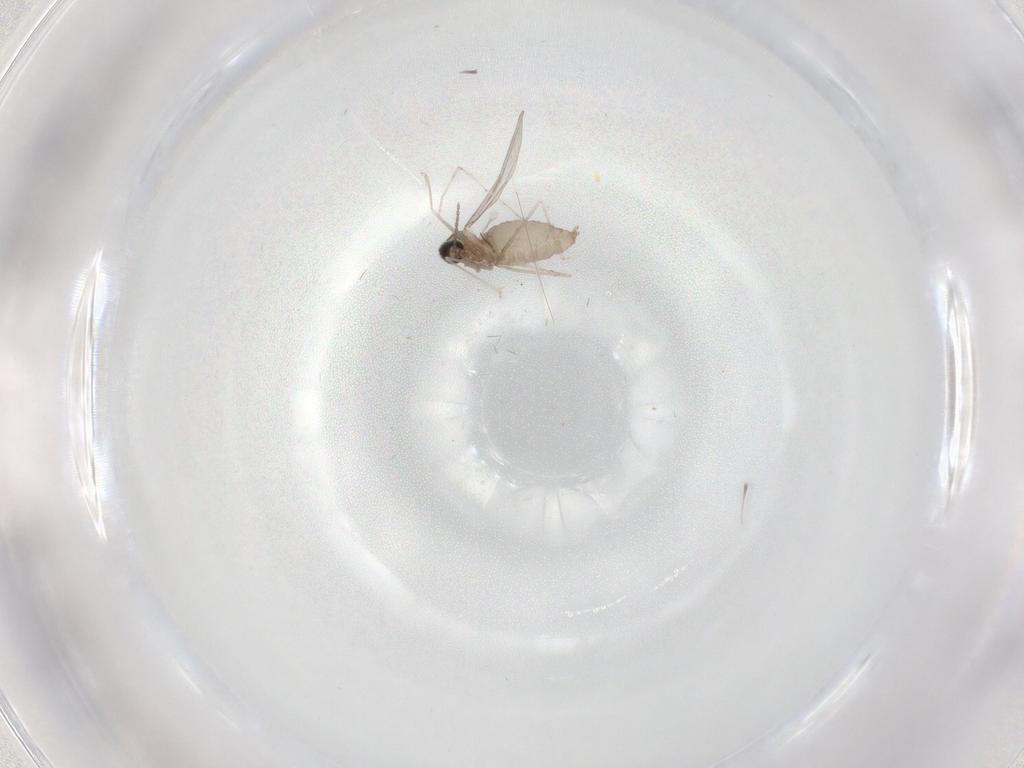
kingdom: Animalia
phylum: Arthropoda
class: Insecta
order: Diptera
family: Cecidomyiidae
